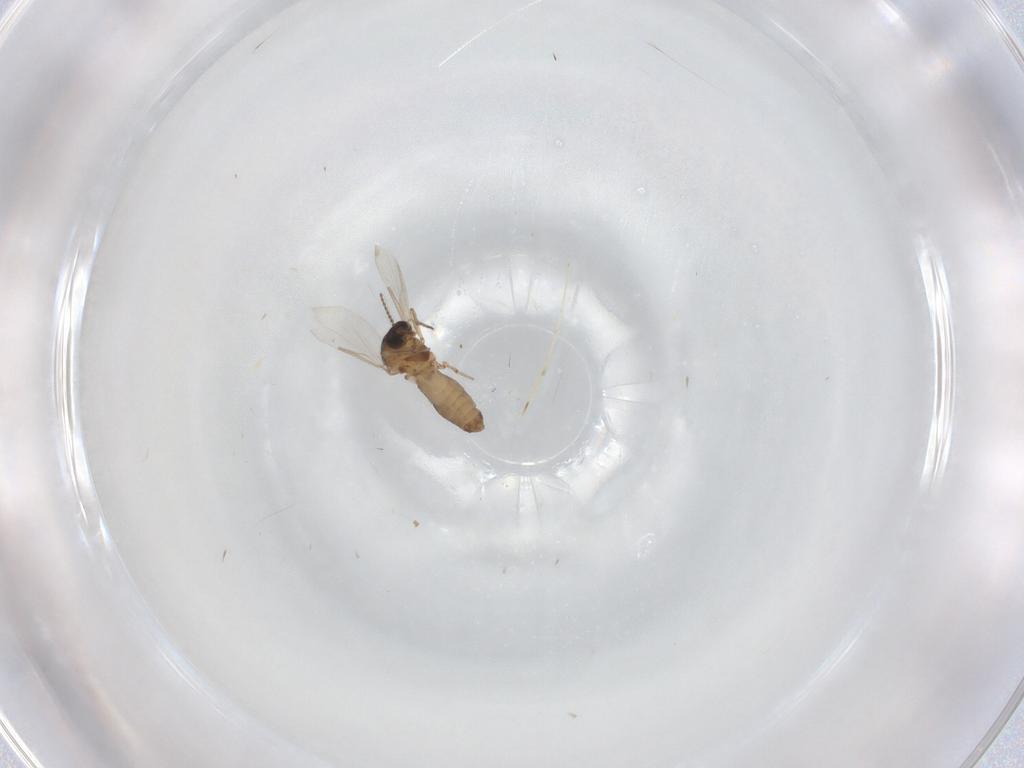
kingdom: Animalia
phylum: Arthropoda
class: Insecta
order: Diptera
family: Ceratopogonidae
